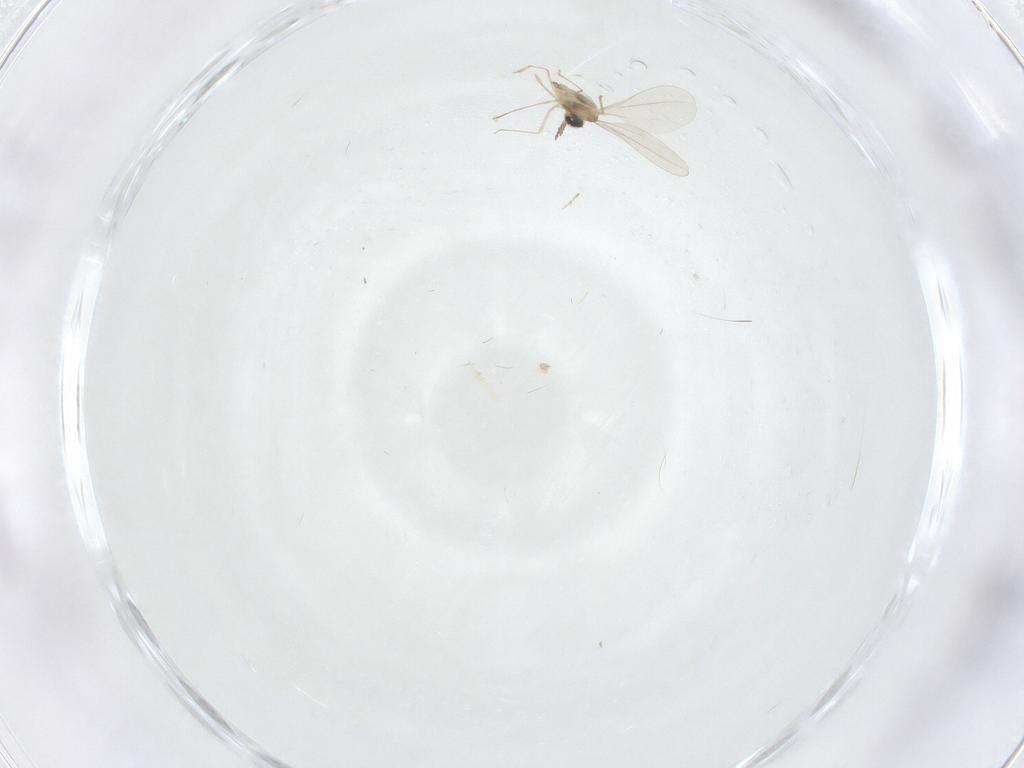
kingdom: Animalia
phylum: Arthropoda
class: Insecta
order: Diptera
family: Cecidomyiidae
